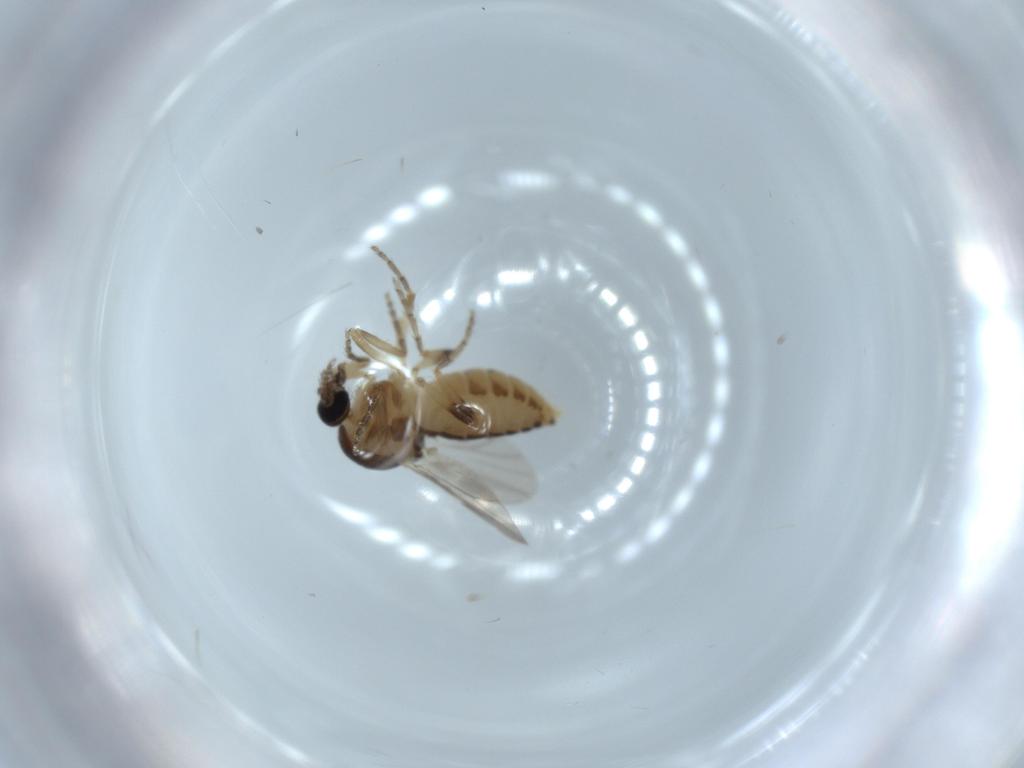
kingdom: Animalia
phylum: Arthropoda
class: Insecta
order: Diptera
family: Ceratopogonidae
